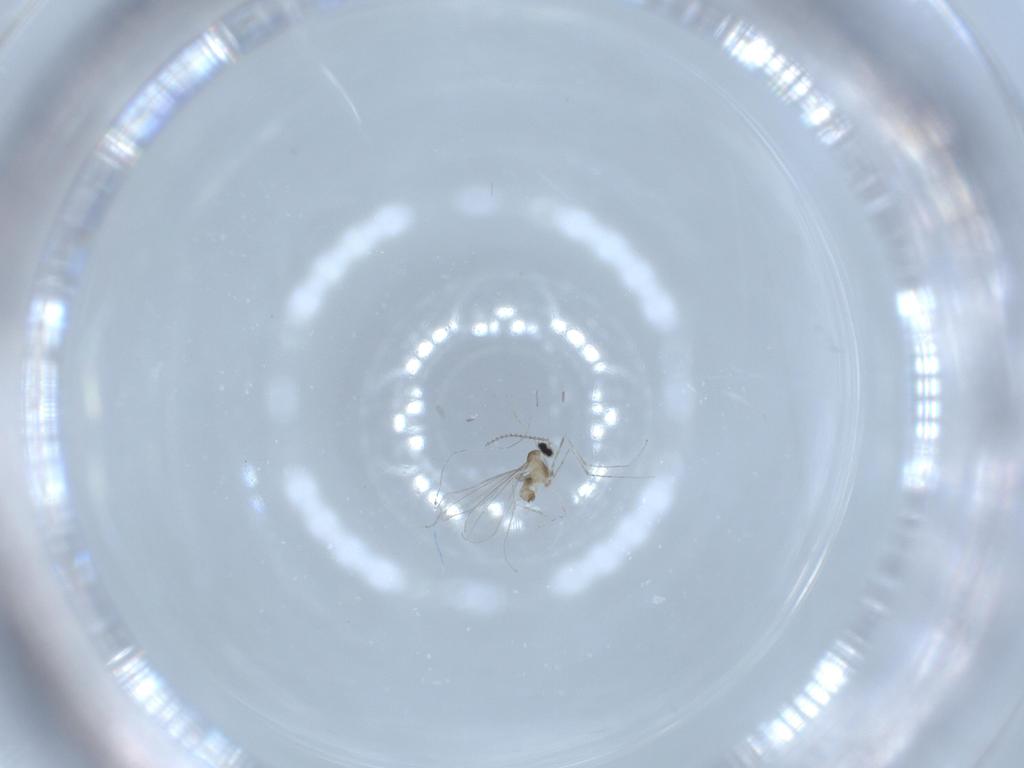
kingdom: Animalia
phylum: Arthropoda
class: Insecta
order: Diptera
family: Cecidomyiidae
